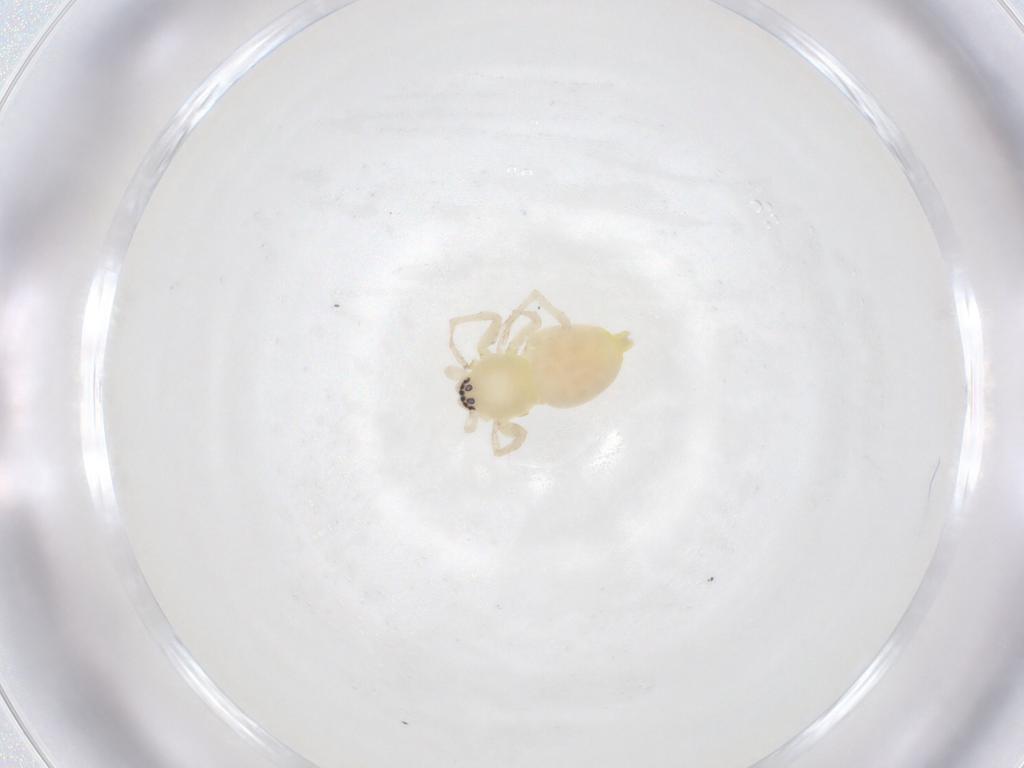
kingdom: Animalia
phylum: Arthropoda
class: Arachnida
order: Araneae
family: Clubionidae
